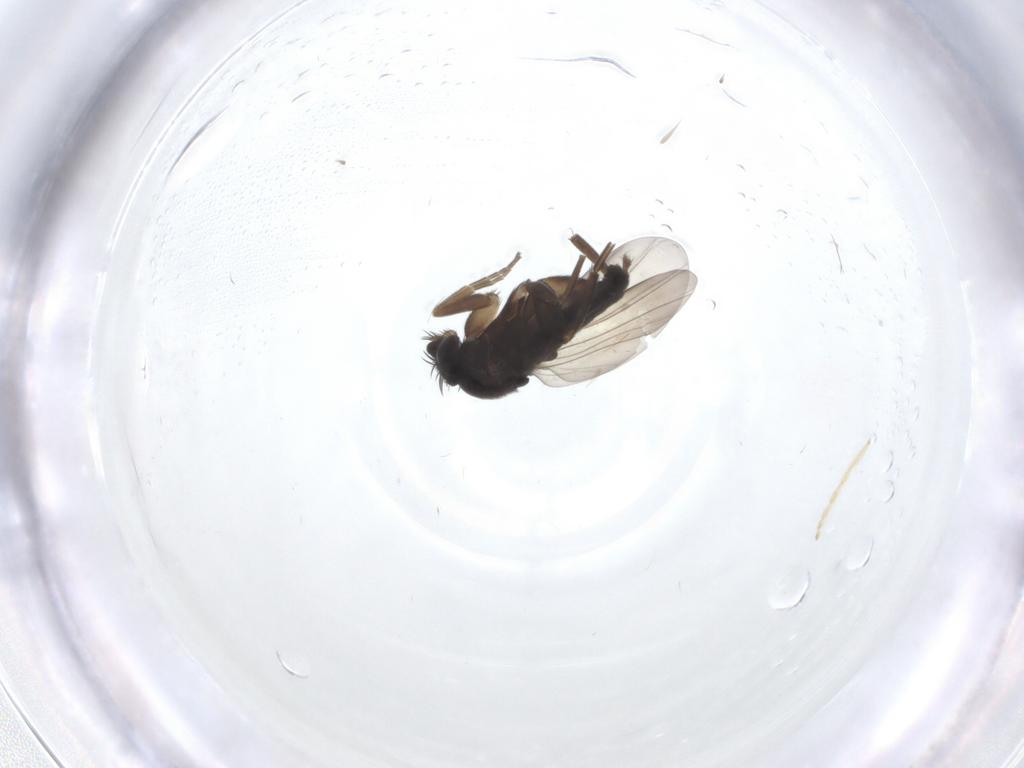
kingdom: Animalia
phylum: Arthropoda
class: Insecta
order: Diptera
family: Phoridae
